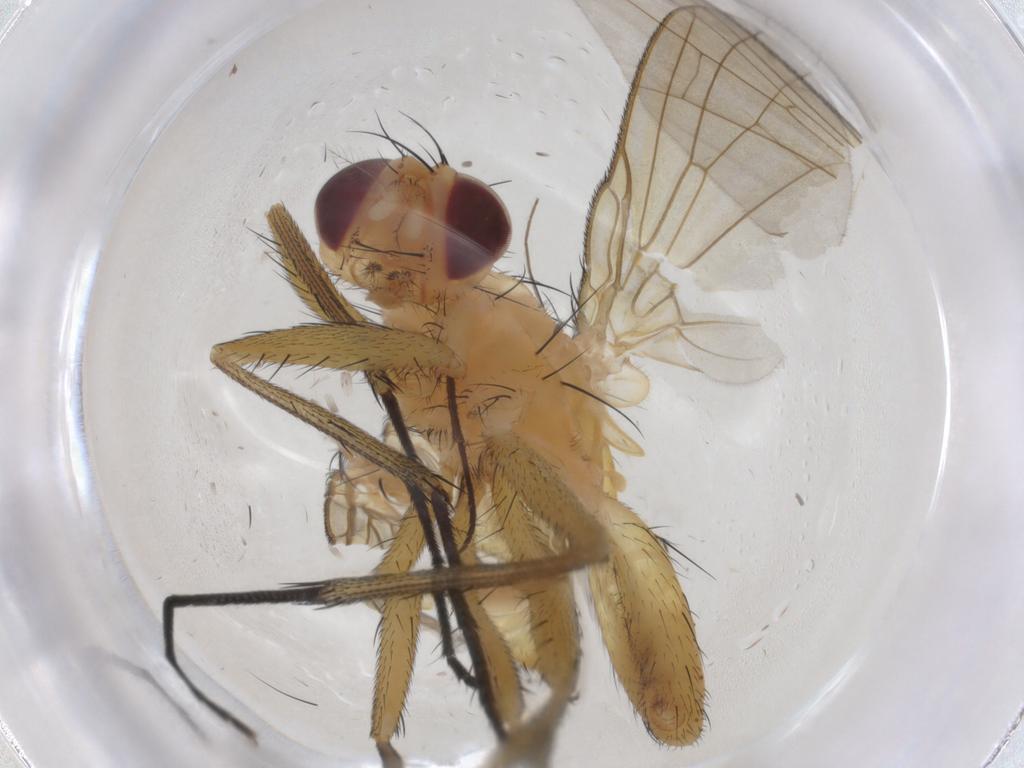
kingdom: Animalia
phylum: Arthropoda
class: Insecta
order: Diptera
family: Calliphoridae
